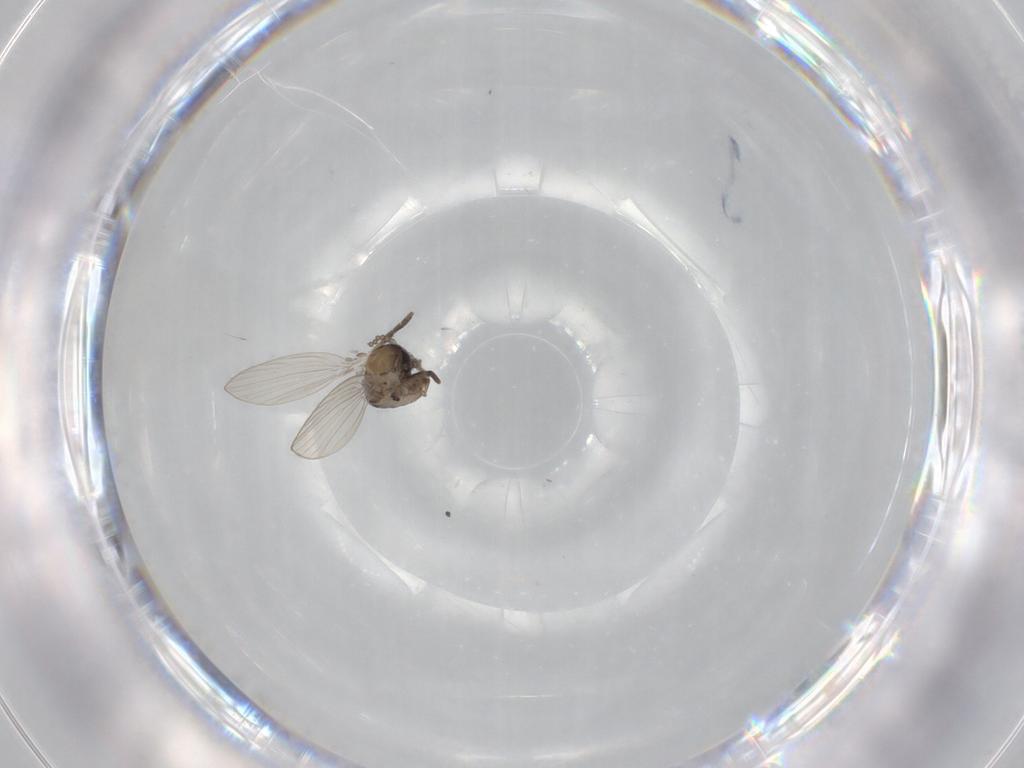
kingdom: Animalia
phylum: Arthropoda
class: Insecta
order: Diptera
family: Psychodidae
